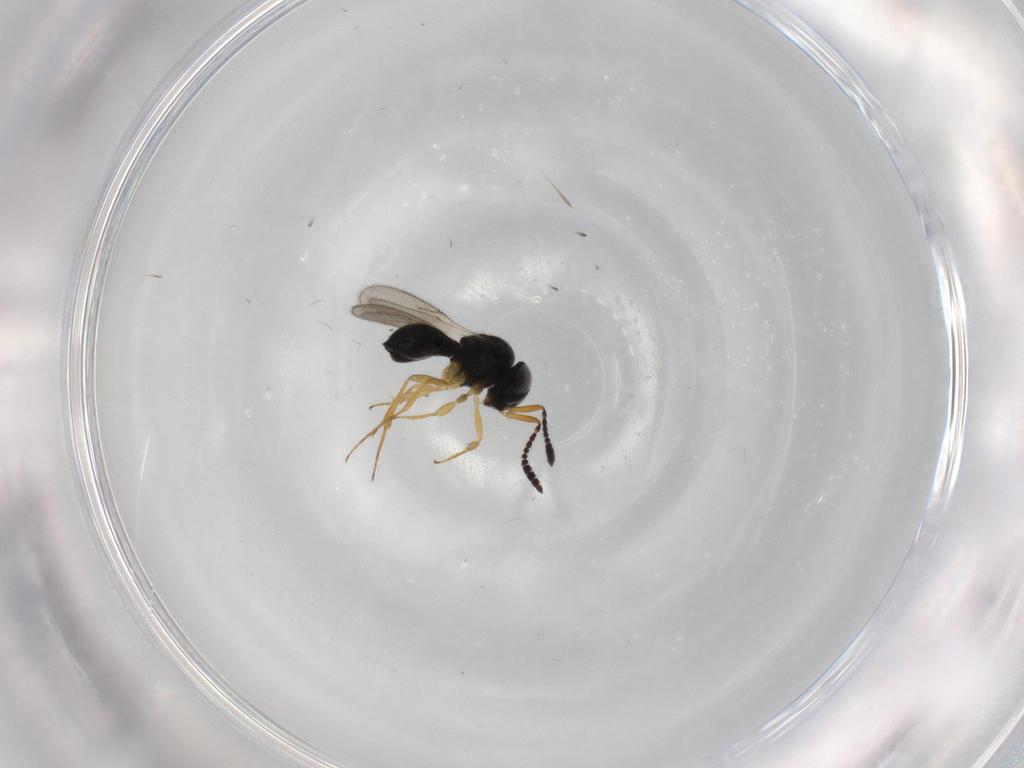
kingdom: Animalia
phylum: Arthropoda
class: Insecta
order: Hymenoptera
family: Scelionidae
